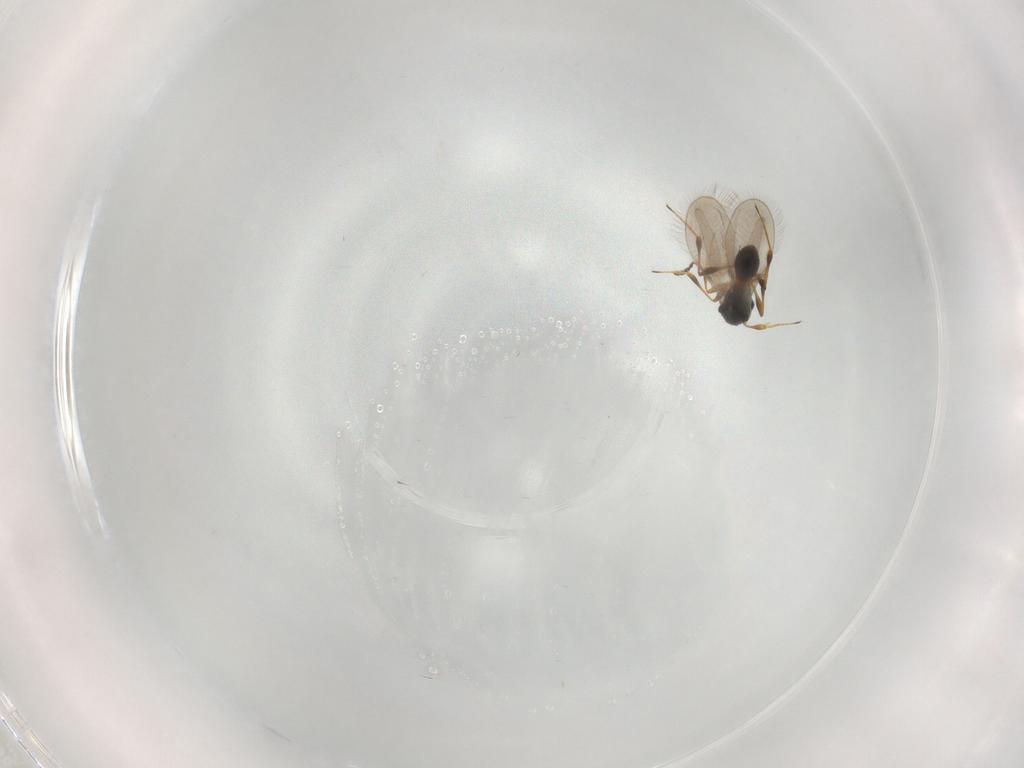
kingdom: Animalia
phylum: Arthropoda
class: Insecta
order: Hymenoptera
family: Platygastridae
